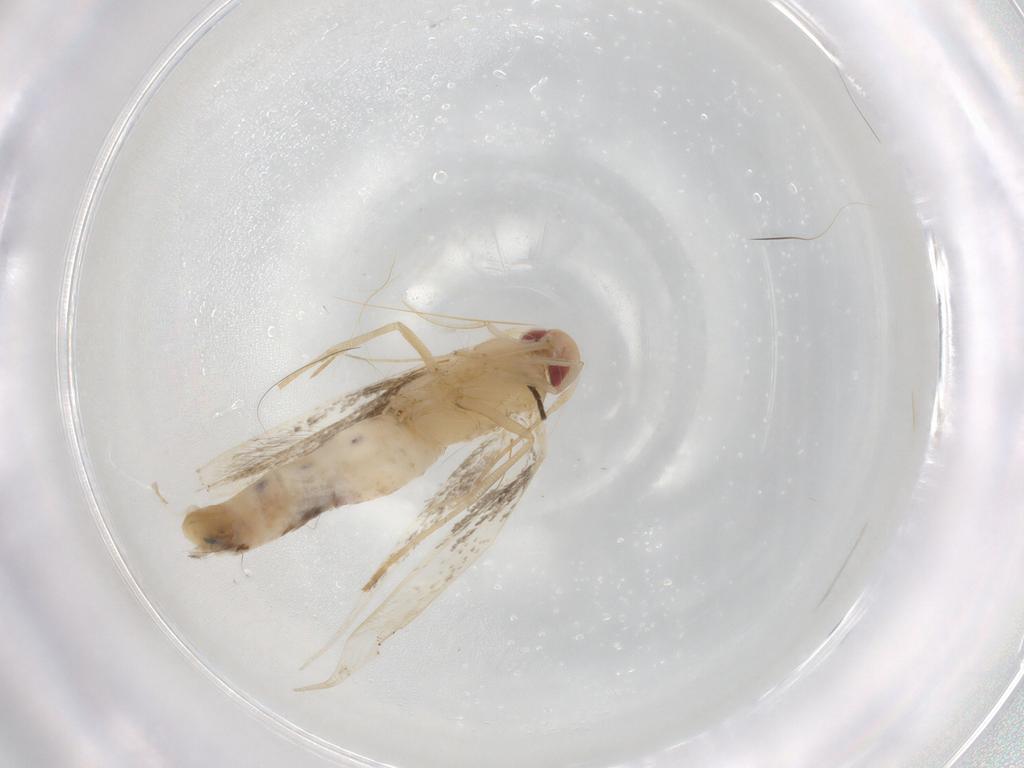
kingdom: Animalia
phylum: Arthropoda
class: Insecta
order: Lepidoptera
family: Cosmopterigidae
